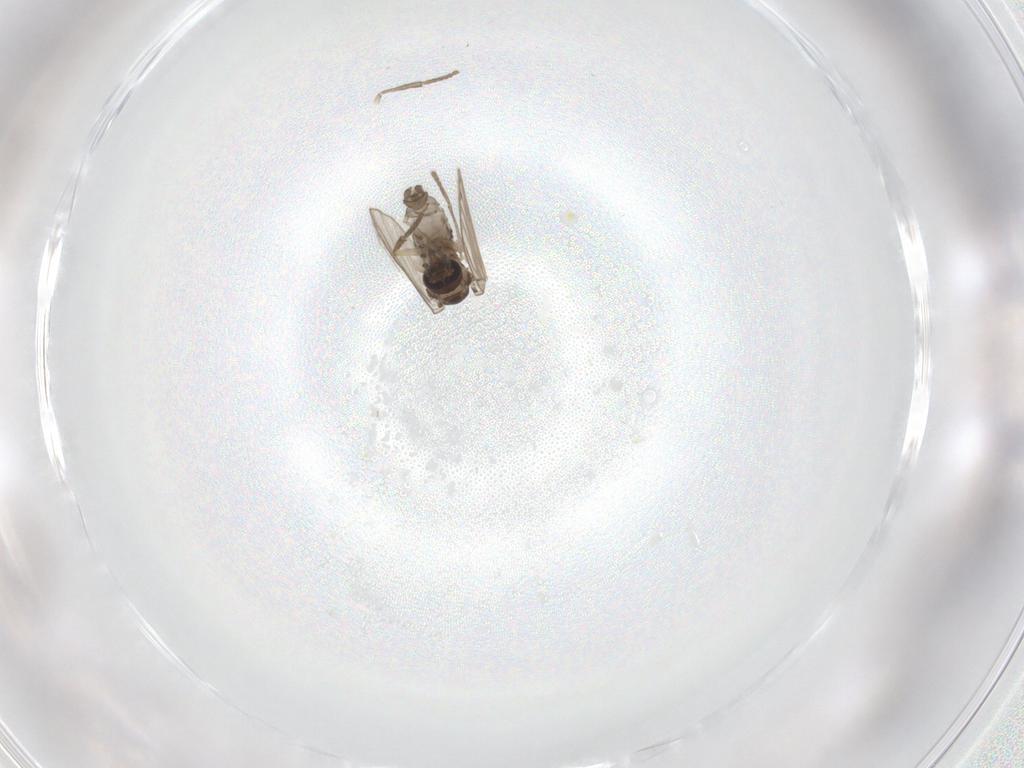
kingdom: Animalia
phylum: Arthropoda
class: Insecta
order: Diptera
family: Psychodidae
